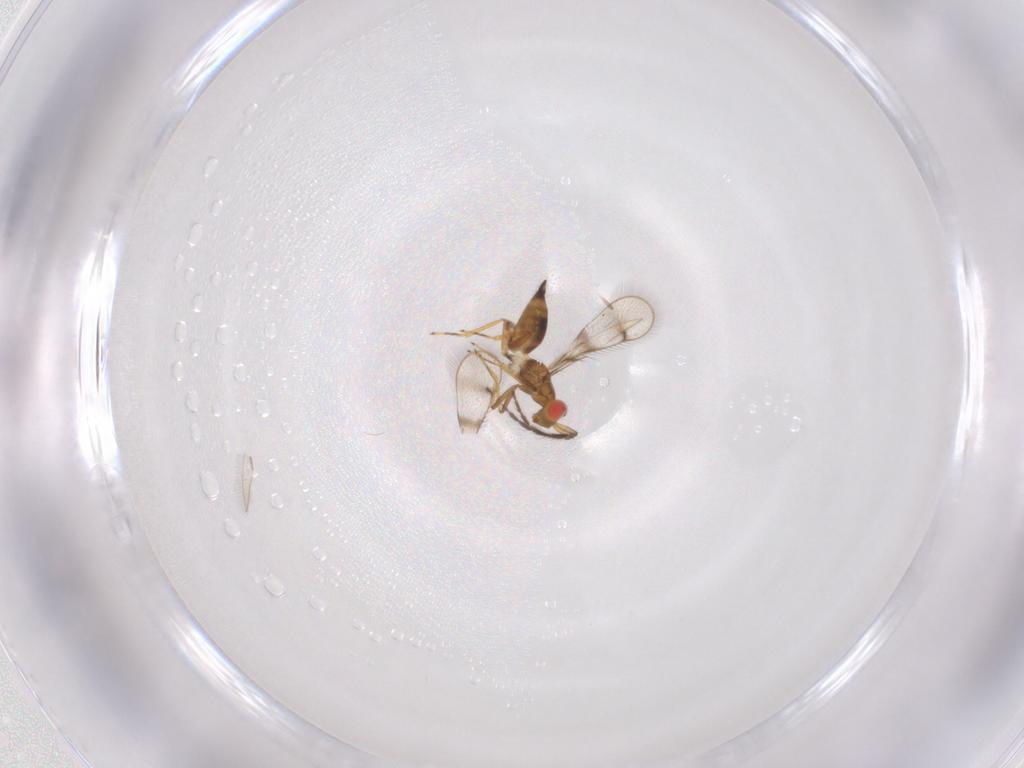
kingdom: Animalia
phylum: Arthropoda
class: Insecta
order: Hymenoptera
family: Eulophidae
